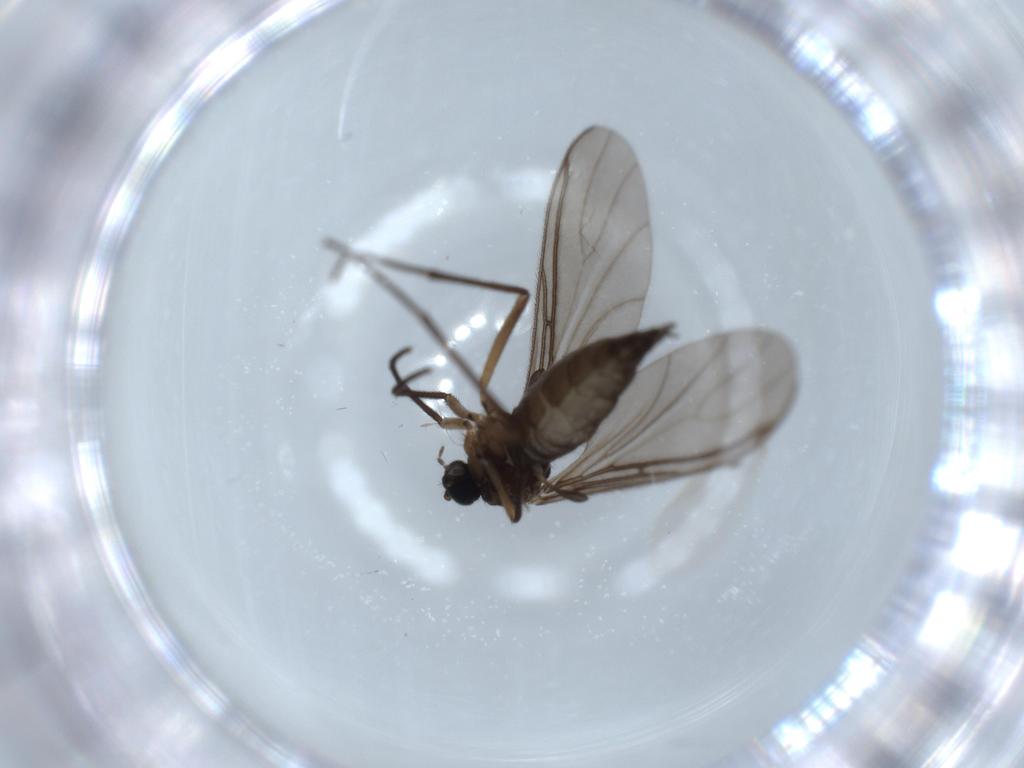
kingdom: Animalia
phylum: Arthropoda
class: Insecta
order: Diptera
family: Sciaridae
